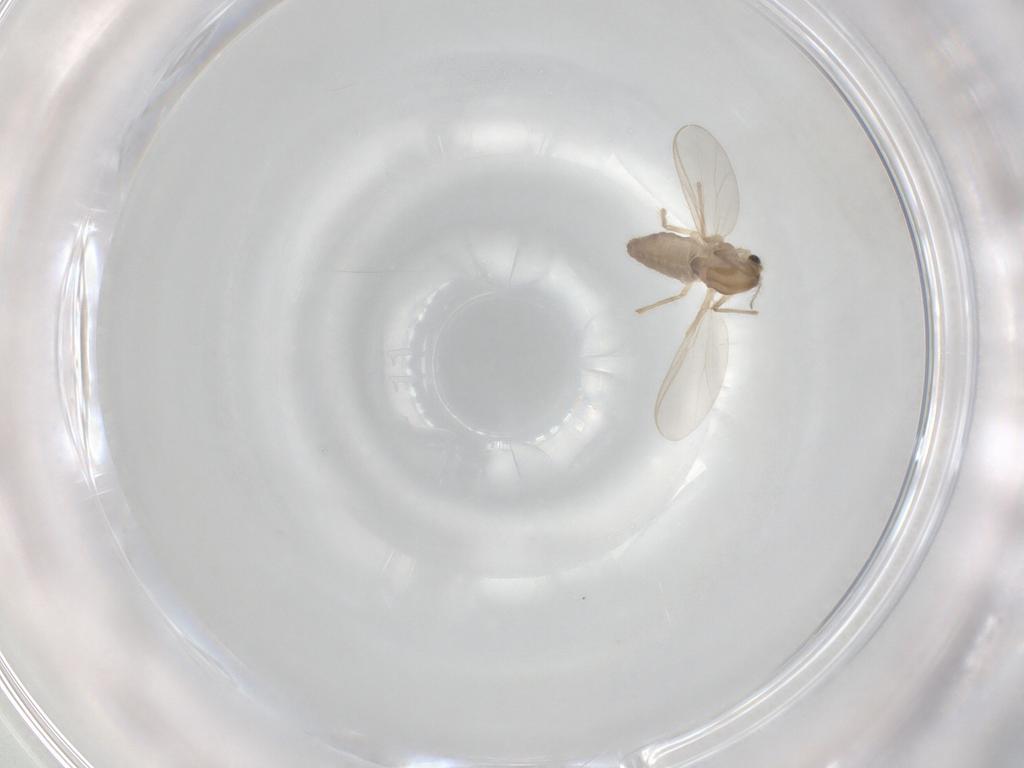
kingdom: Animalia
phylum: Arthropoda
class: Insecta
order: Diptera
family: Chironomidae
